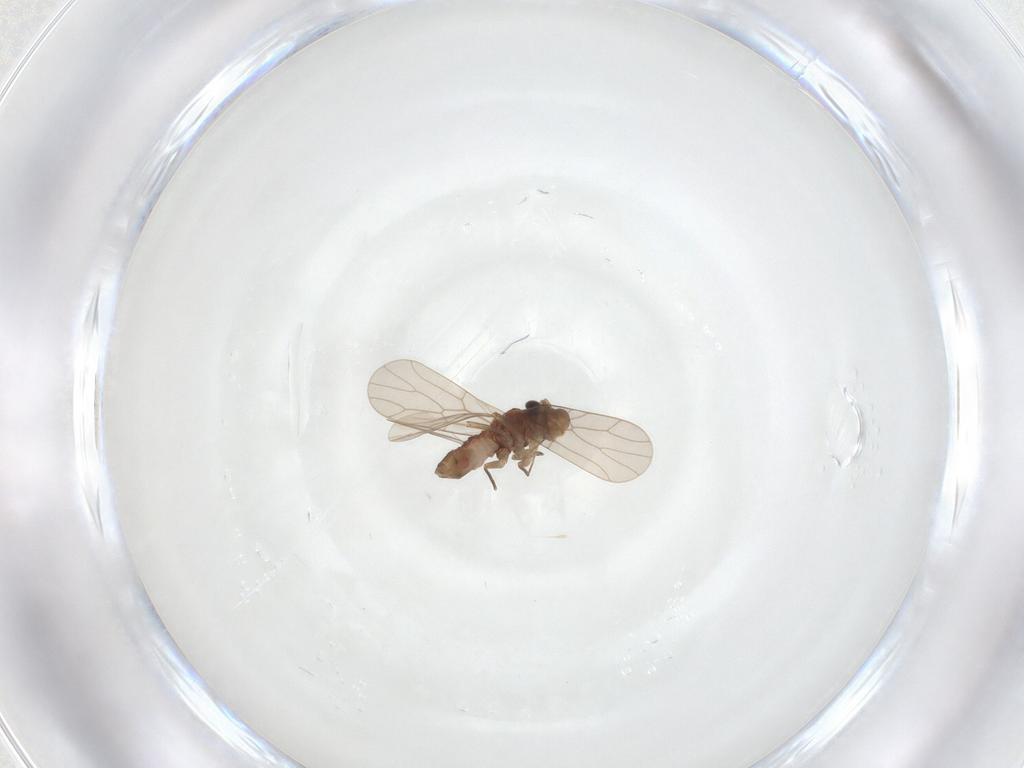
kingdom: Animalia
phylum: Arthropoda
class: Insecta
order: Psocodea
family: Lepidopsocidae
